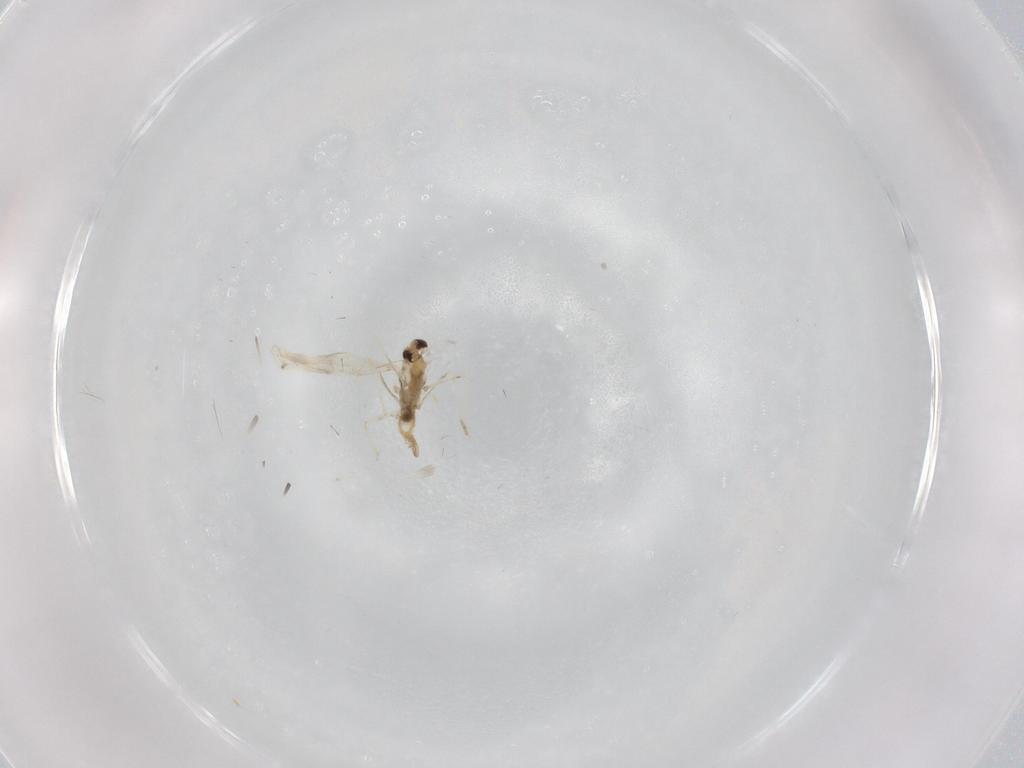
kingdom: Animalia
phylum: Arthropoda
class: Insecta
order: Diptera
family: Cecidomyiidae
